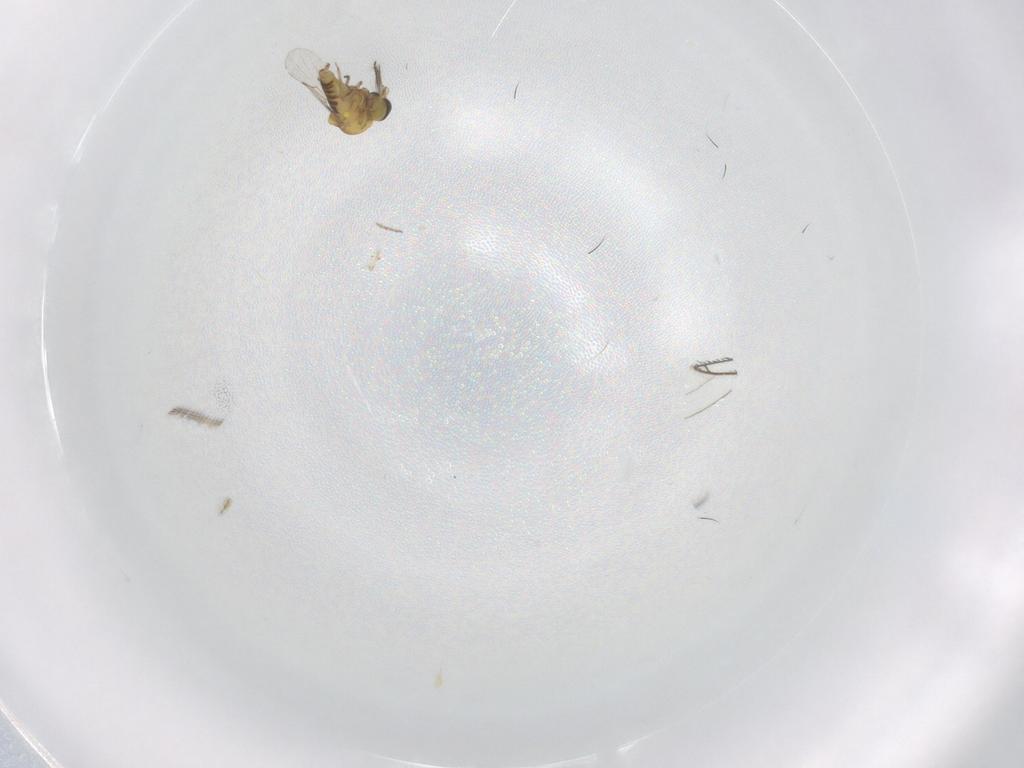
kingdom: Animalia
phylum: Arthropoda
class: Insecta
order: Diptera
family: Ceratopogonidae
